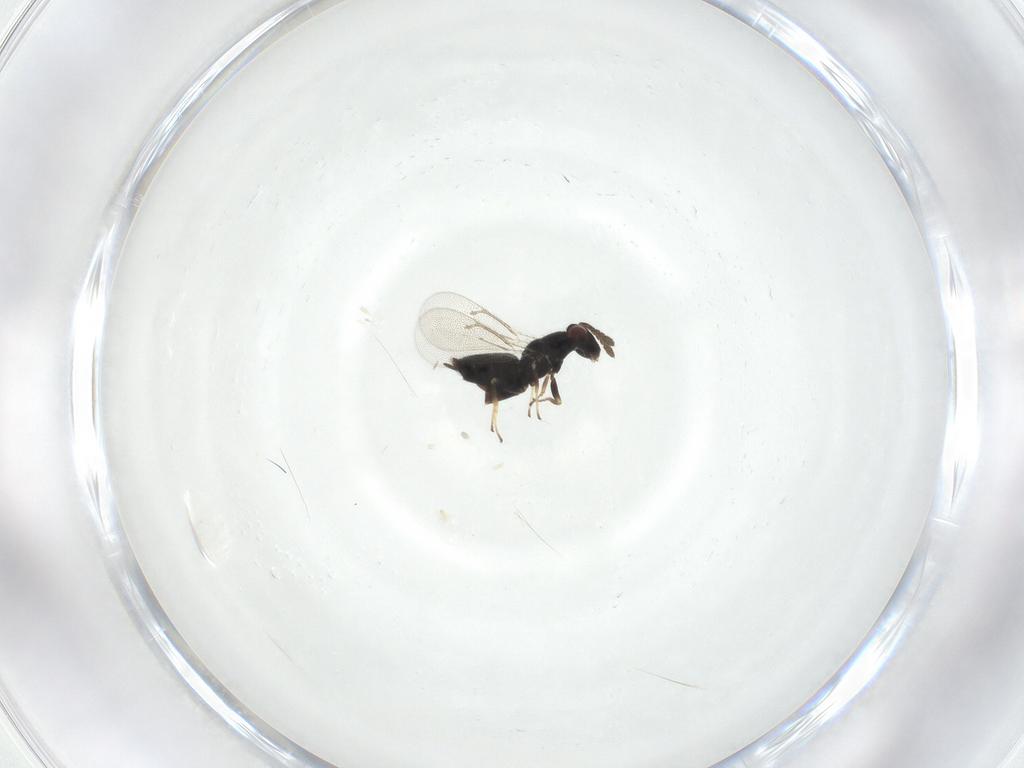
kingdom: Animalia
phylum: Arthropoda
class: Insecta
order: Hymenoptera
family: Eulophidae
